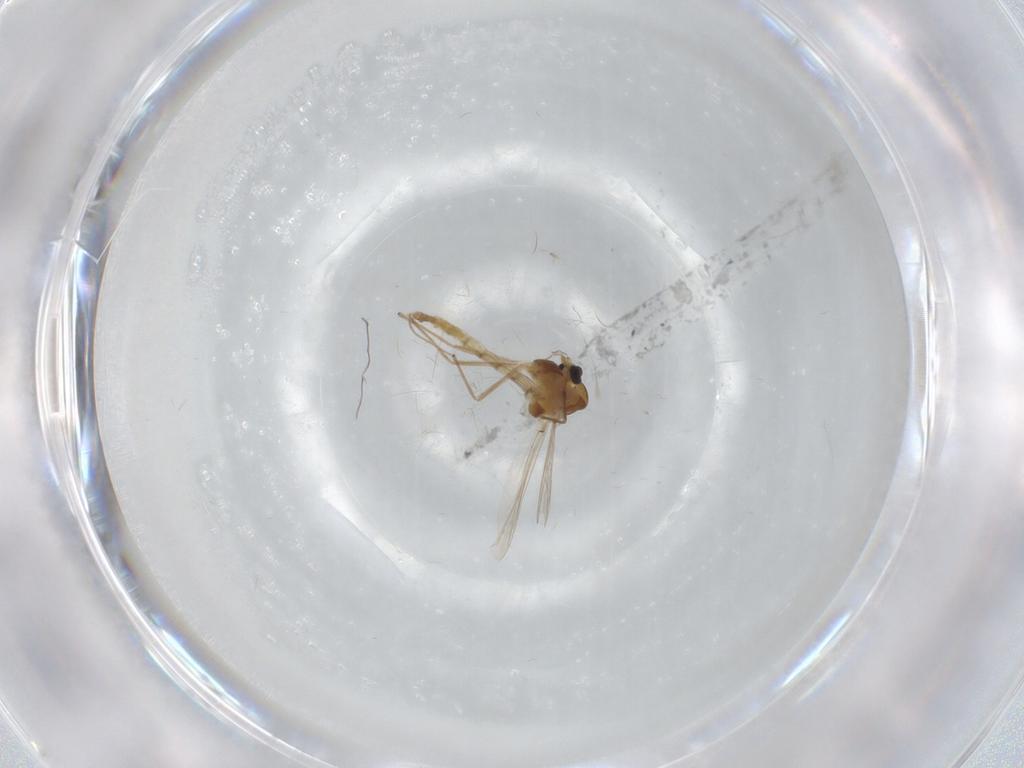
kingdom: Animalia
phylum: Arthropoda
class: Insecta
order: Diptera
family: Chironomidae
